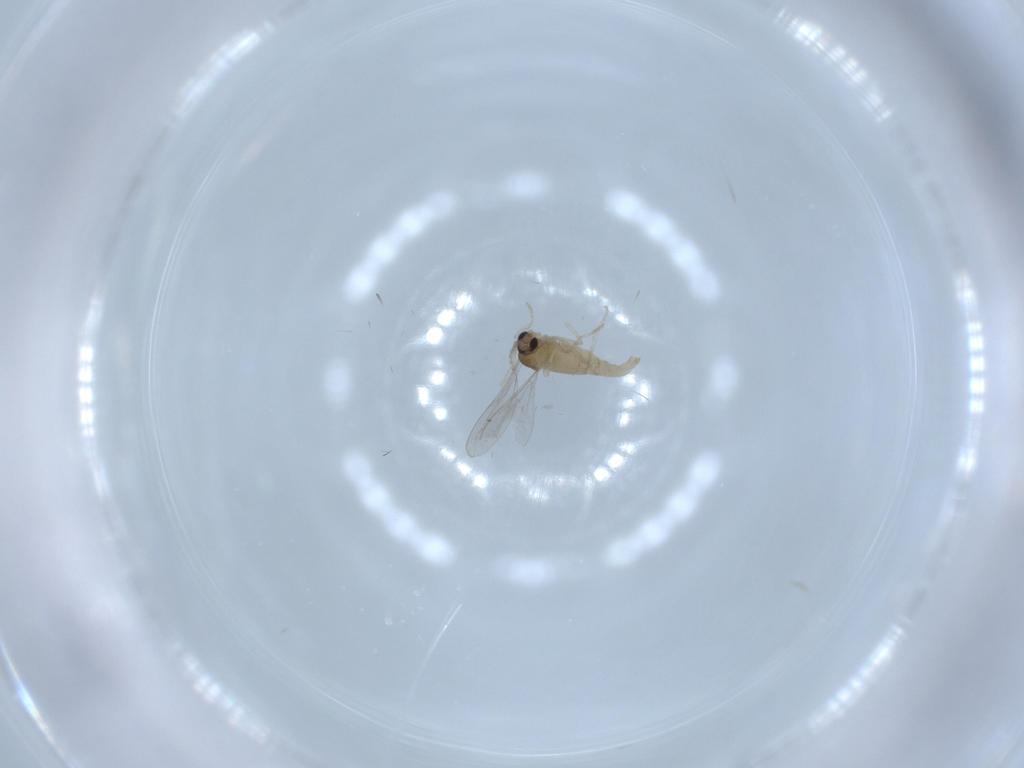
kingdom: Animalia
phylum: Arthropoda
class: Insecta
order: Diptera
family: Cecidomyiidae
